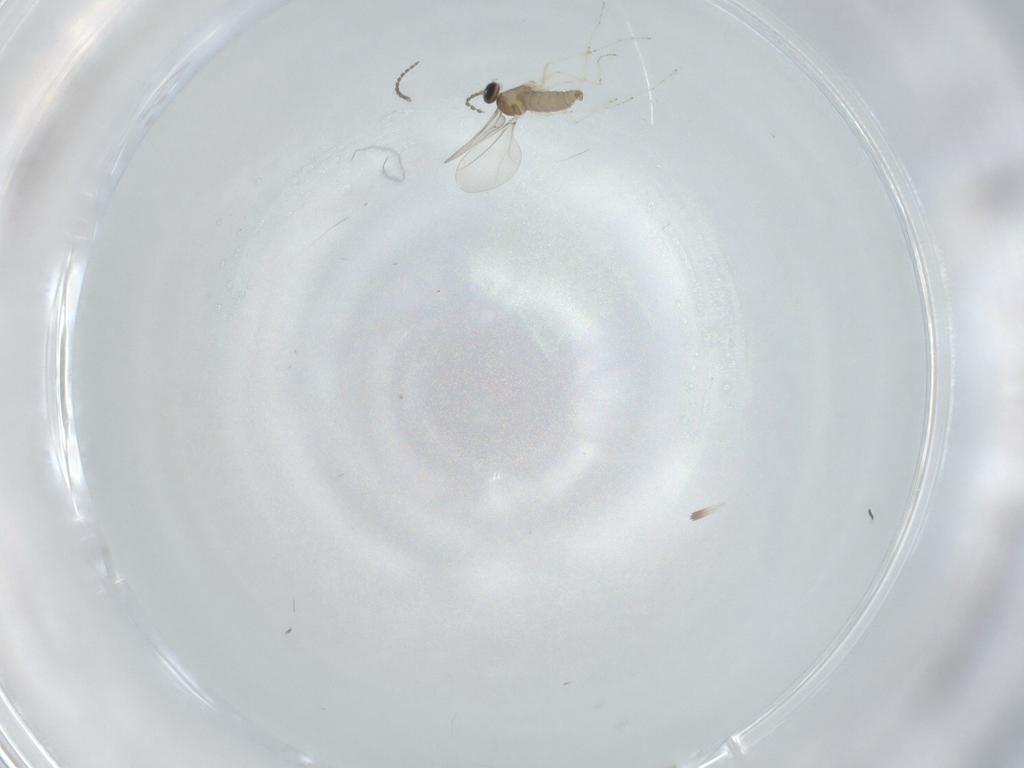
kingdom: Animalia
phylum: Arthropoda
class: Insecta
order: Diptera
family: Cecidomyiidae
